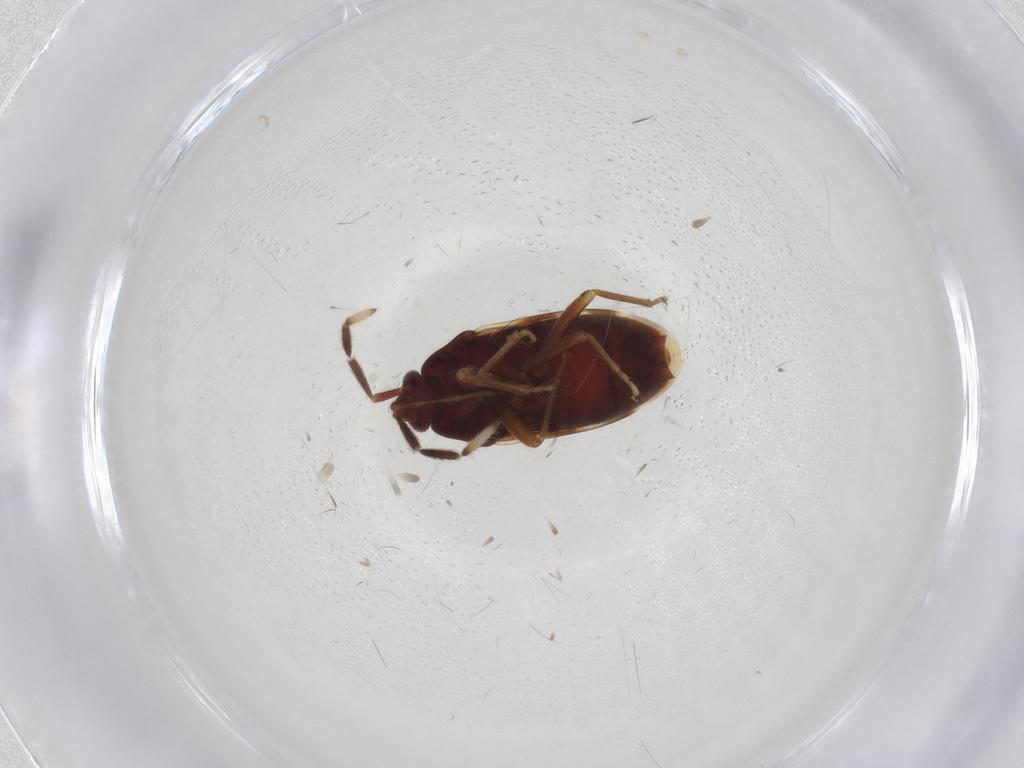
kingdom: Animalia
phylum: Arthropoda
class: Insecta
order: Hemiptera
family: Rhyparochromidae
